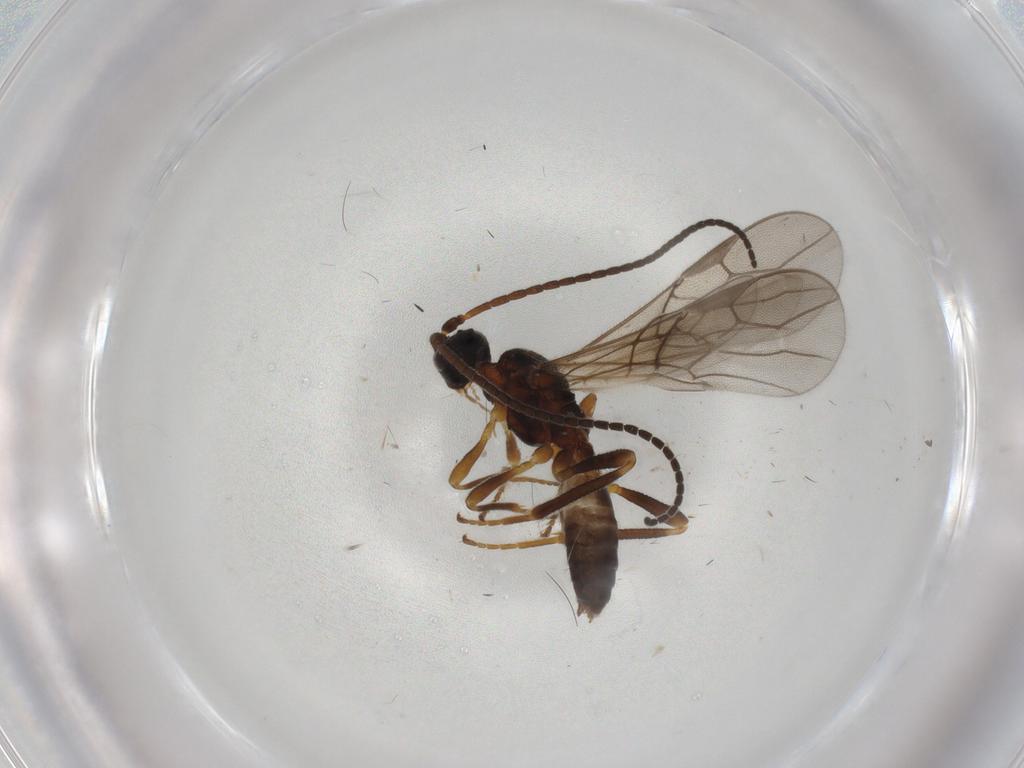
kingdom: Animalia
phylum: Arthropoda
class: Insecta
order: Hymenoptera
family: Braconidae
